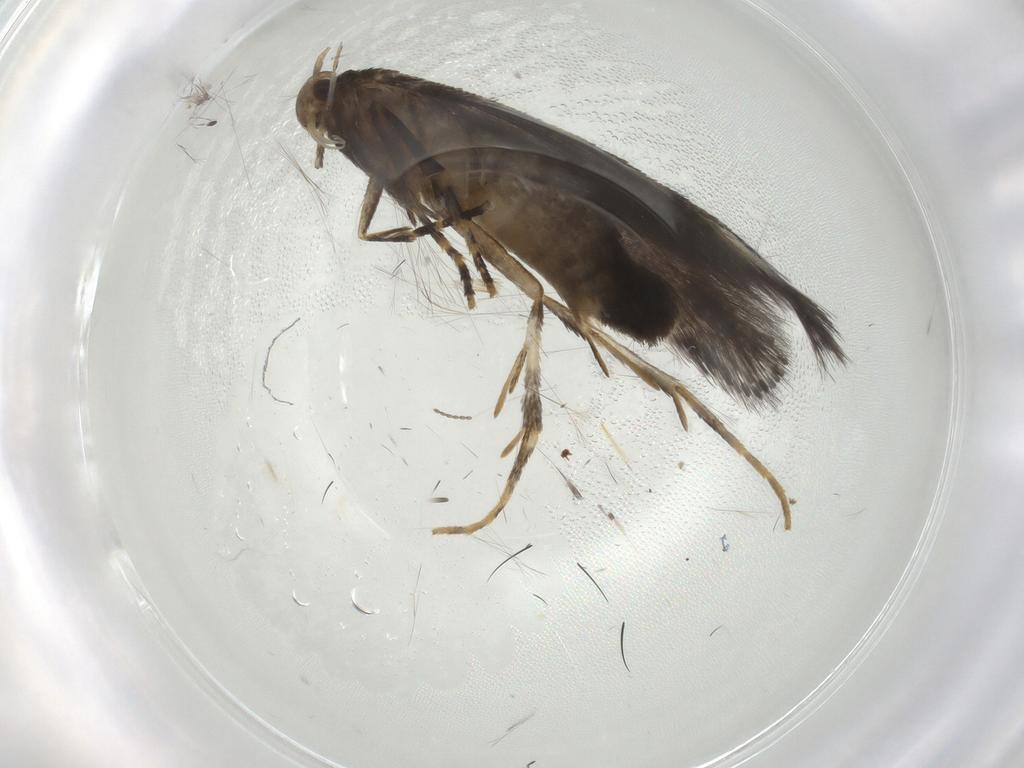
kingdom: Animalia
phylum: Arthropoda
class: Insecta
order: Lepidoptera
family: Elachistidae
